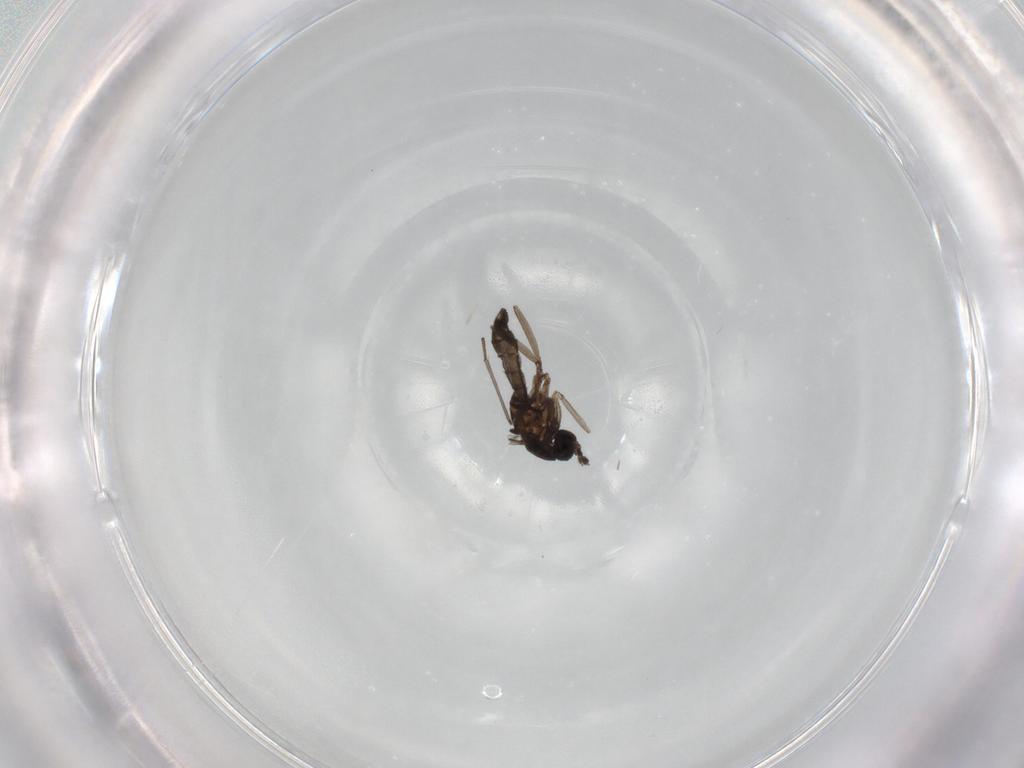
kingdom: Animalia
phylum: Arthropoda
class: Insecta
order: Diptera
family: Sciaridae
